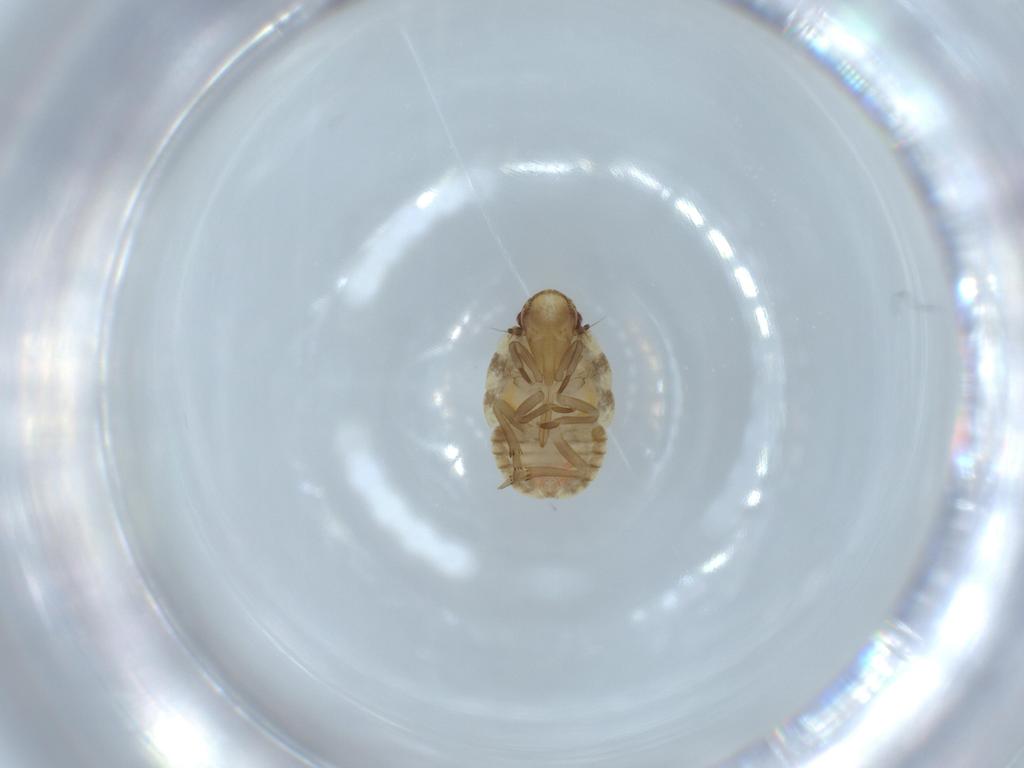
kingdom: Animalia
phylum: Arthropoda
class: Insecta
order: Hemiptera
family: Flatidae
